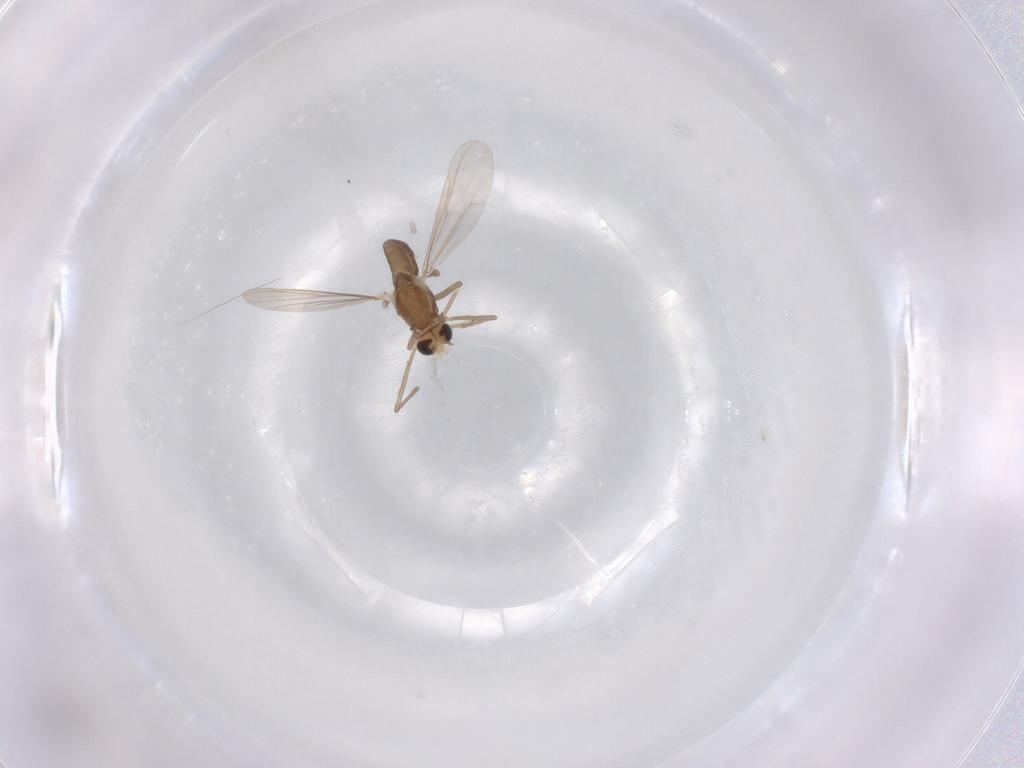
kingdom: Animalia
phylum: Arthropoda
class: Insecta
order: Diptera
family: Chironomidae
